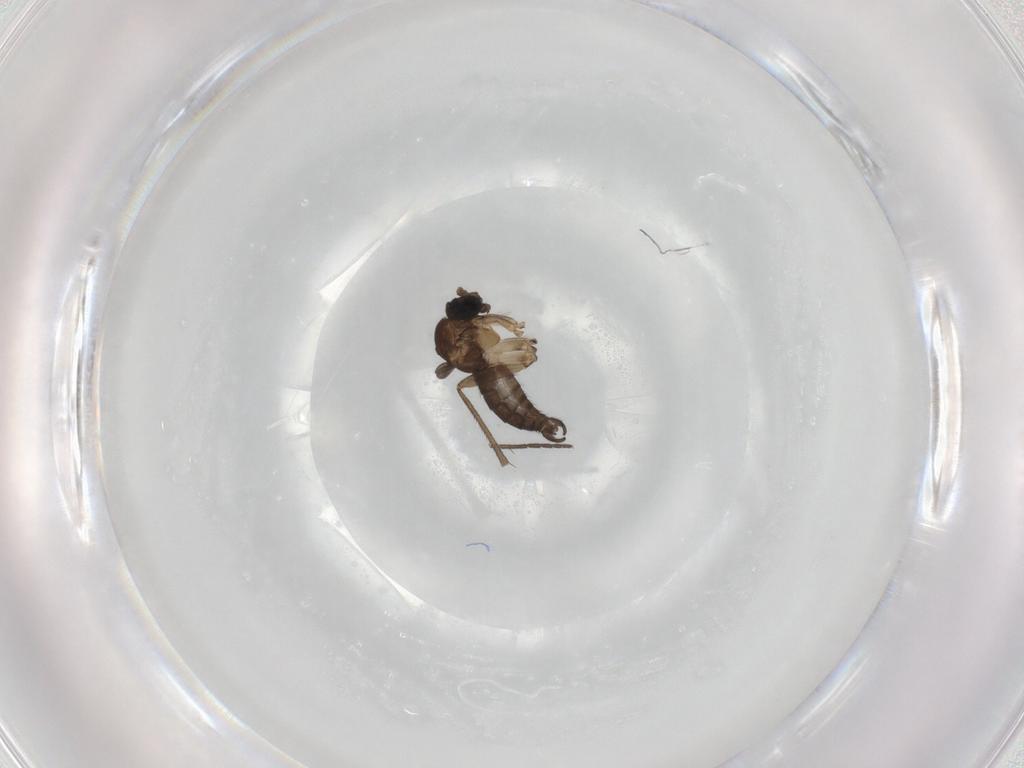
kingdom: Animalia
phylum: Arthropoda
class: Insecta
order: Diptera
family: Sciaridae
